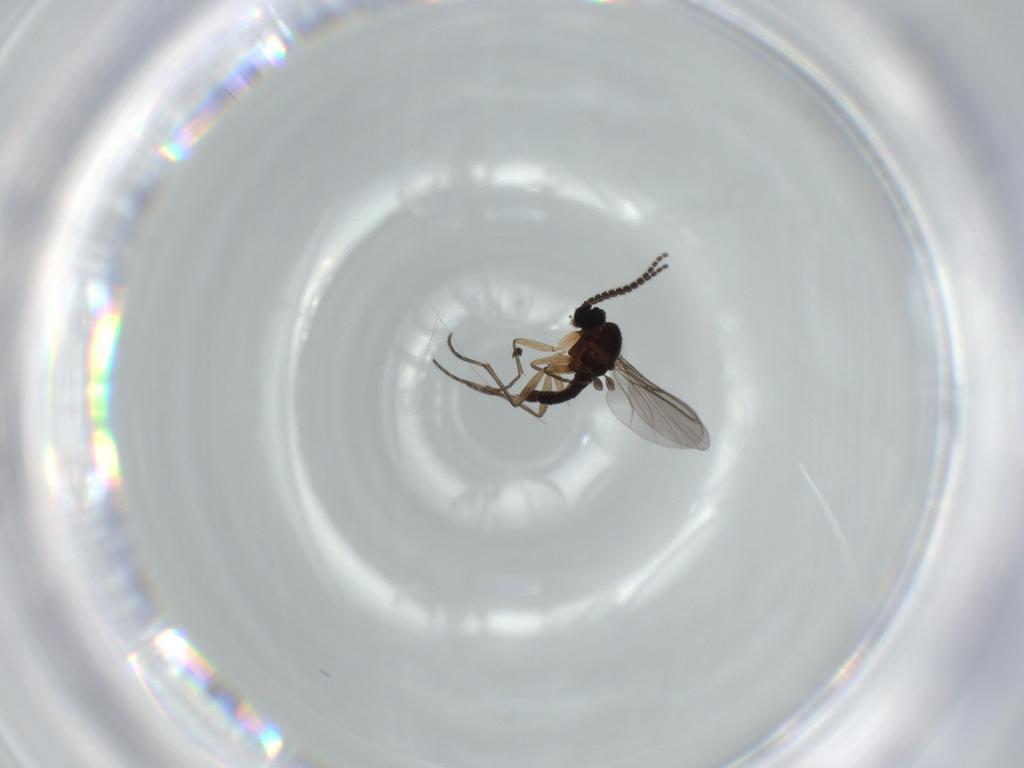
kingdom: Animalia
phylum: Arthropoda
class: Insecta
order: Diptera
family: Sciaridae
